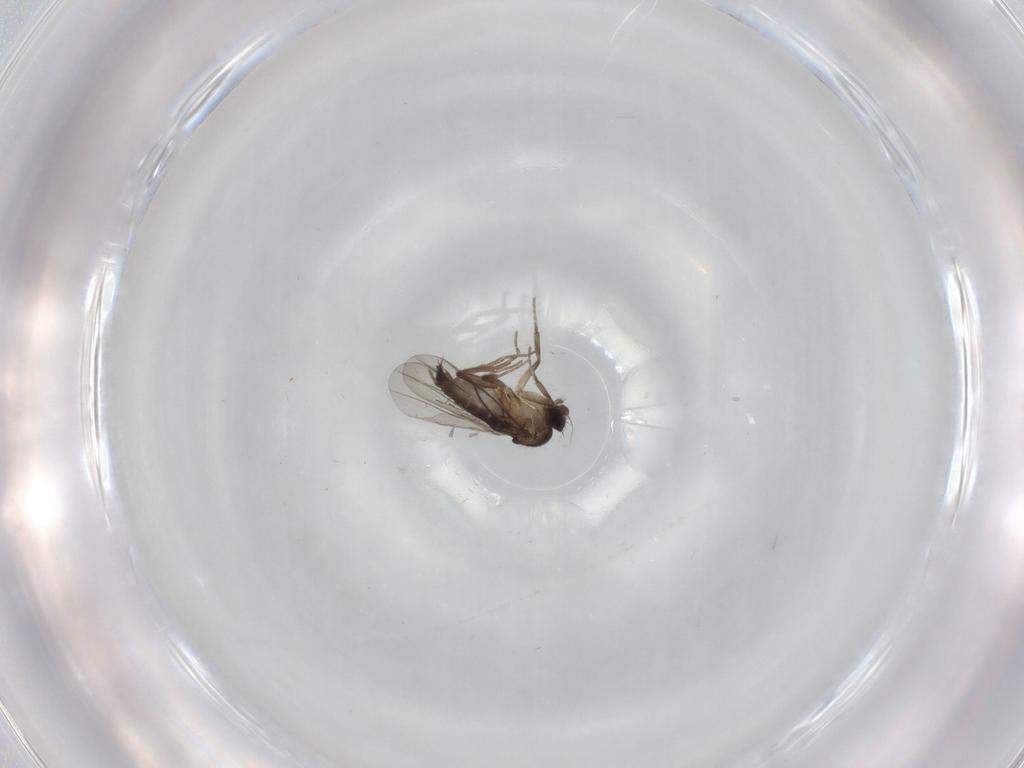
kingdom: Animalia
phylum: Arthropoda
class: Insecta
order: Diptera
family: Phoridae
